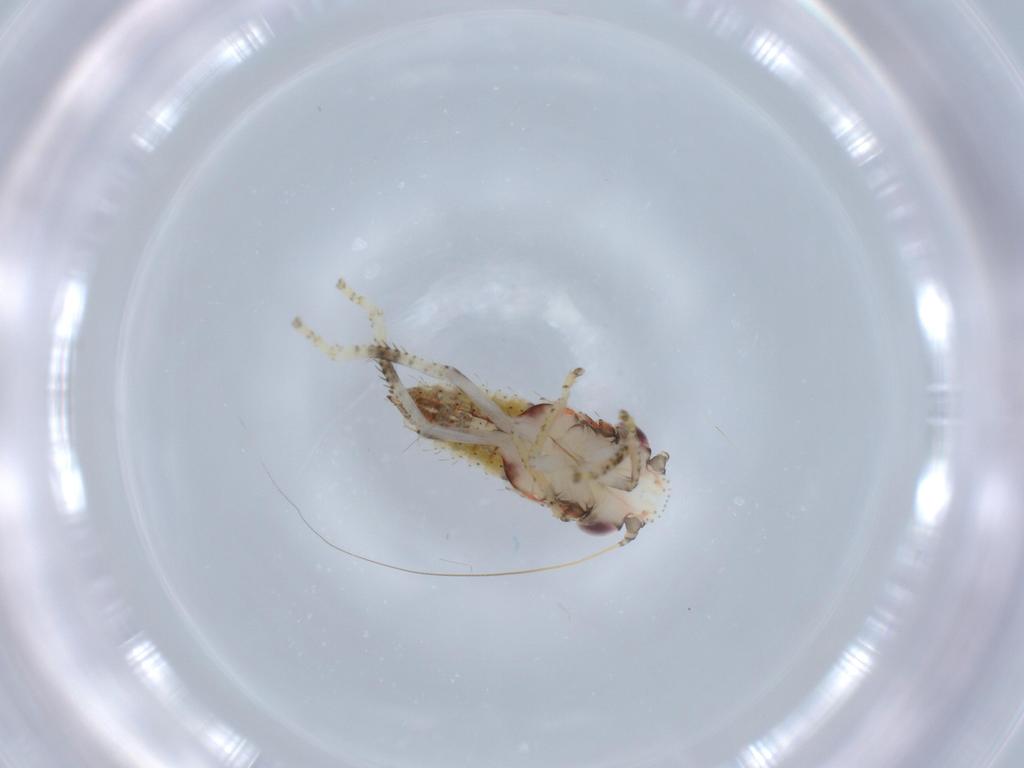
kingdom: Animalia
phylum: Arthropoda
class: Insecta
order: Hemiptera
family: Cicadellidae
